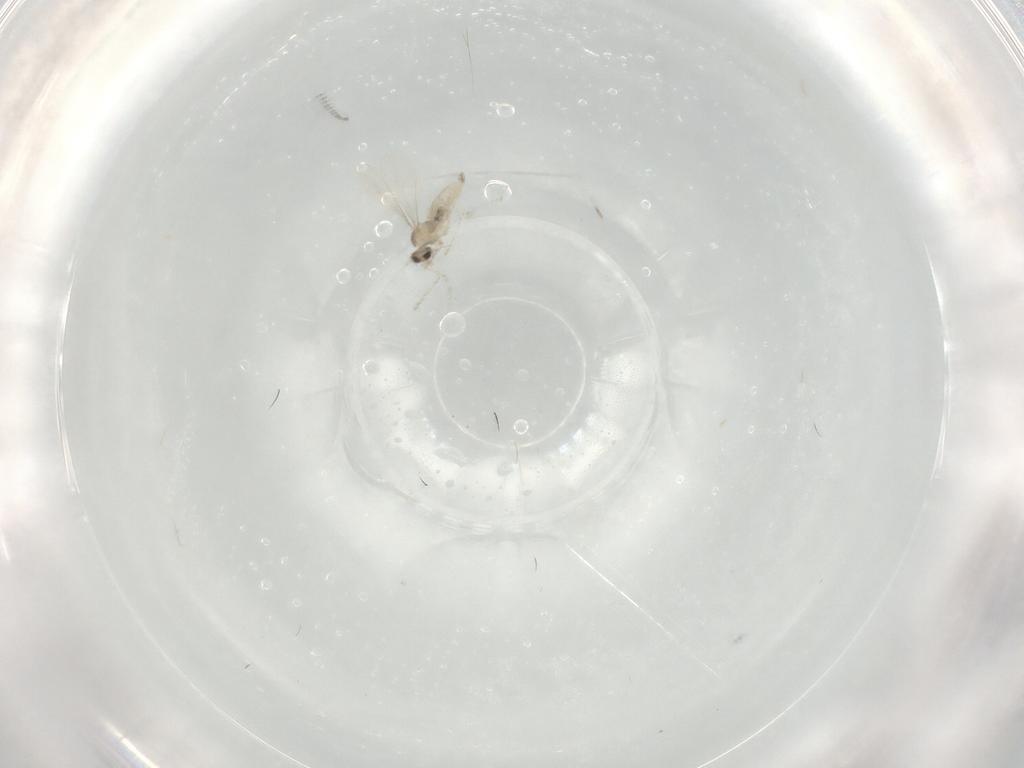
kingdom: Animalia
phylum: Arthropoda
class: Insecta
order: Diptera
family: Cecidomyiidae
